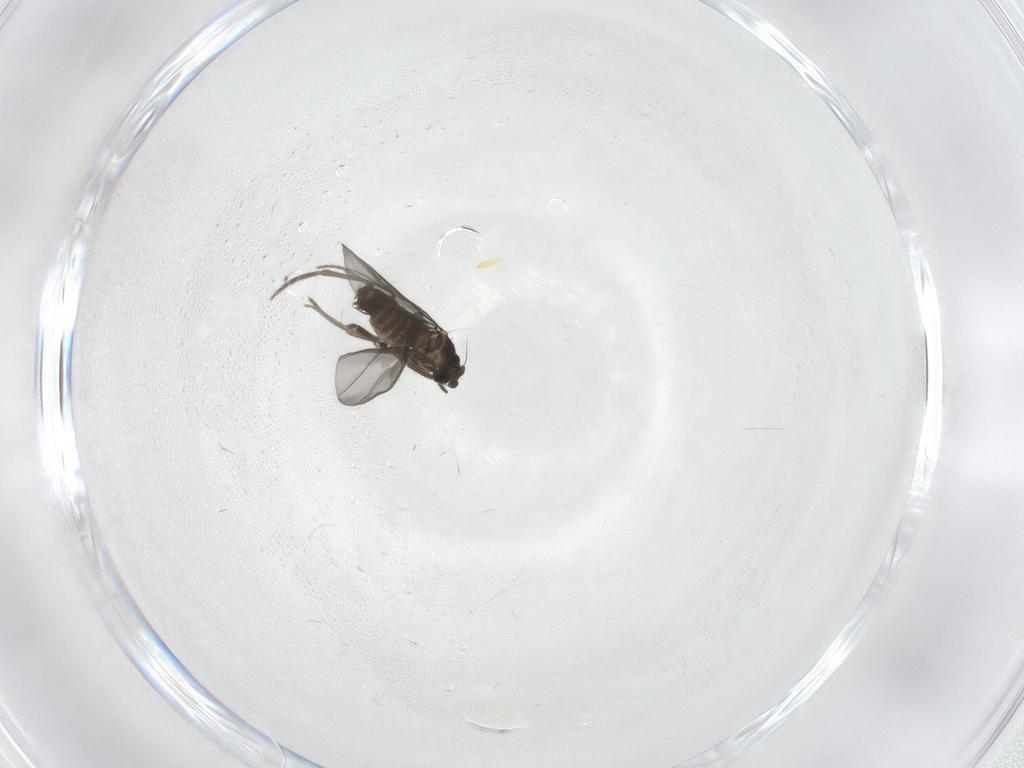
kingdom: Animalia
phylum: Arthropoda
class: Insecta
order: Diptera
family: Phoridae
